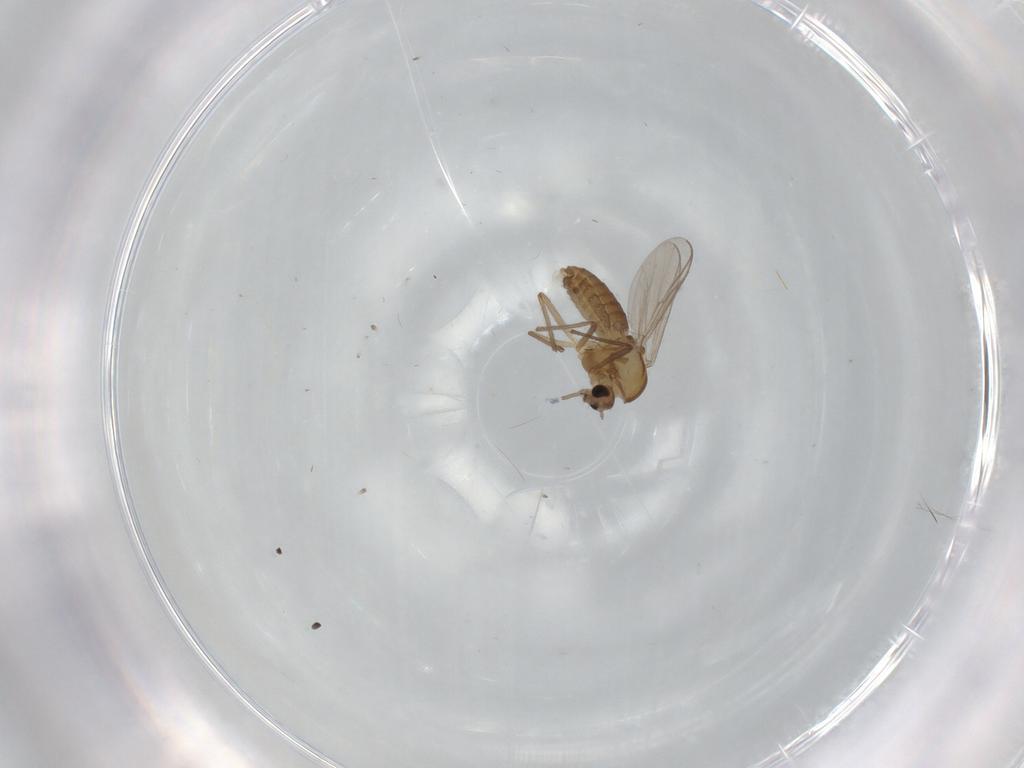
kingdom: Animalia
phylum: Arthropoda
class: Insecta
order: Diptera
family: Chironomidae
